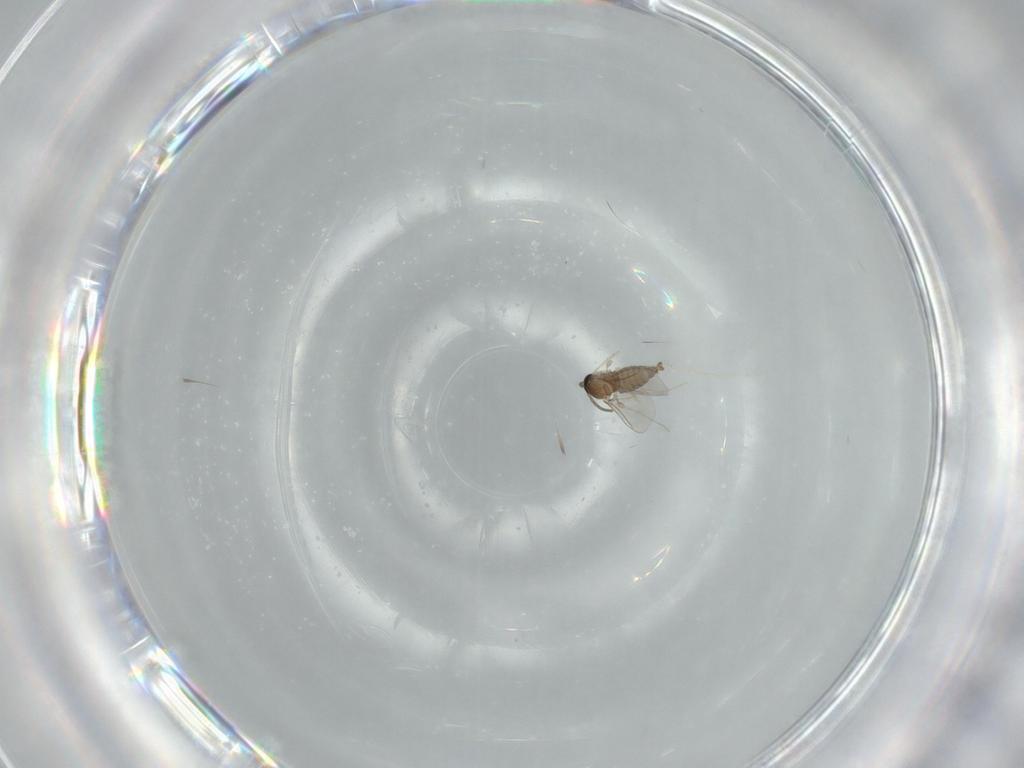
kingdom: Animalia
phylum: Arthropoda
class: Insecta
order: Diptera
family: Cecidomyiidae
